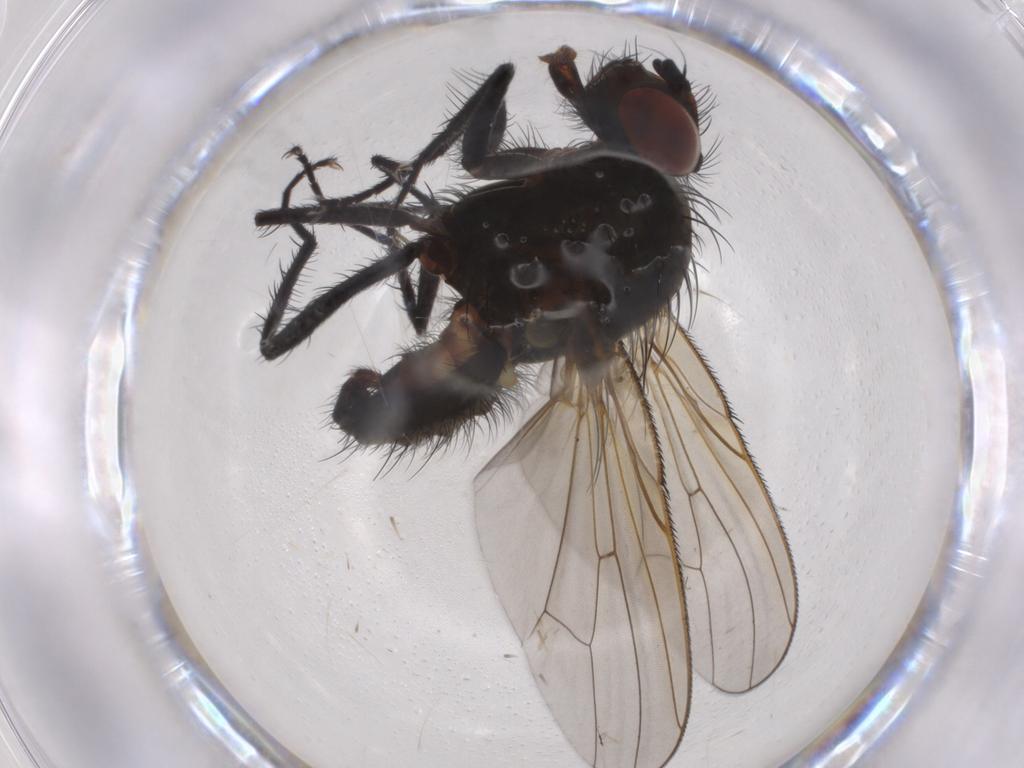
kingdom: Animalia
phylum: Arthropoda
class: Insecta
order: Diptera
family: Anthomyiidae
